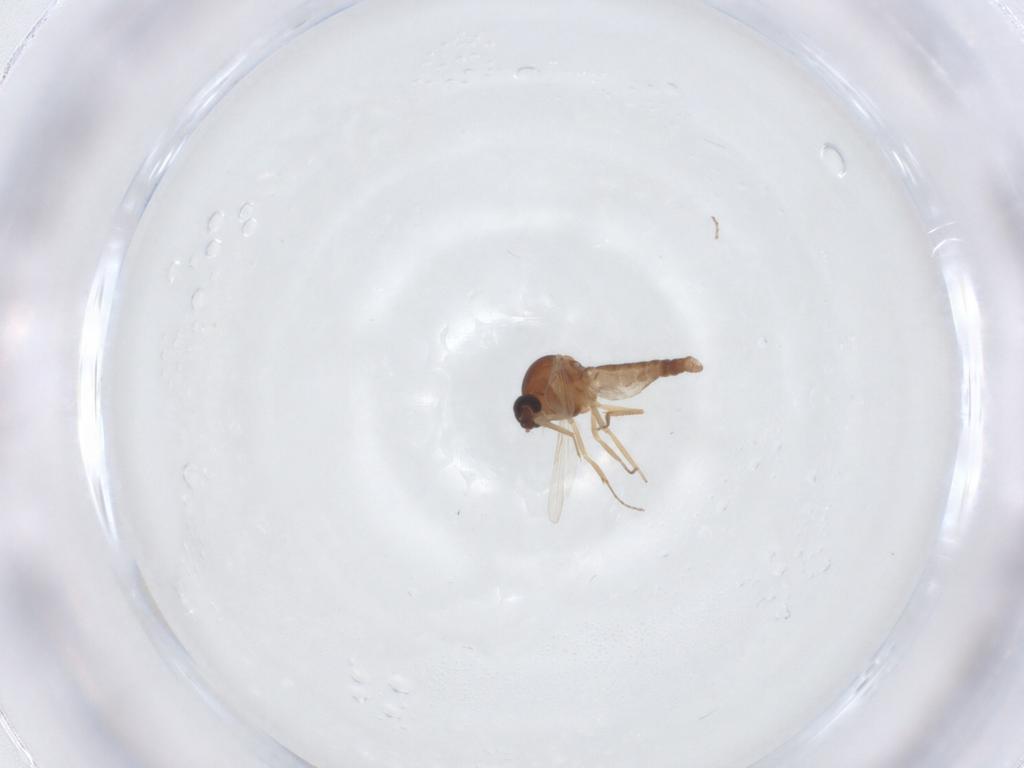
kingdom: Animalia
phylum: Arthropoda
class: Insecta
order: Diptera
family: Ceratopogonidae
